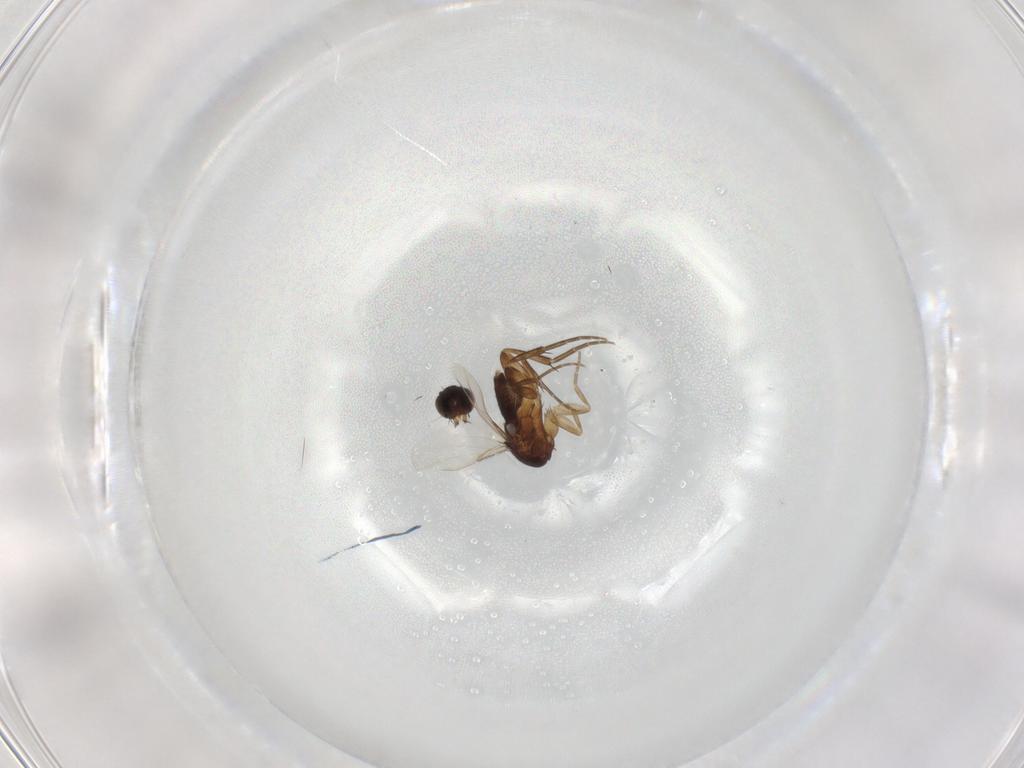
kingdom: Animalia
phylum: Arthropoda
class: Insecta
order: Diptera
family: Phoridae
